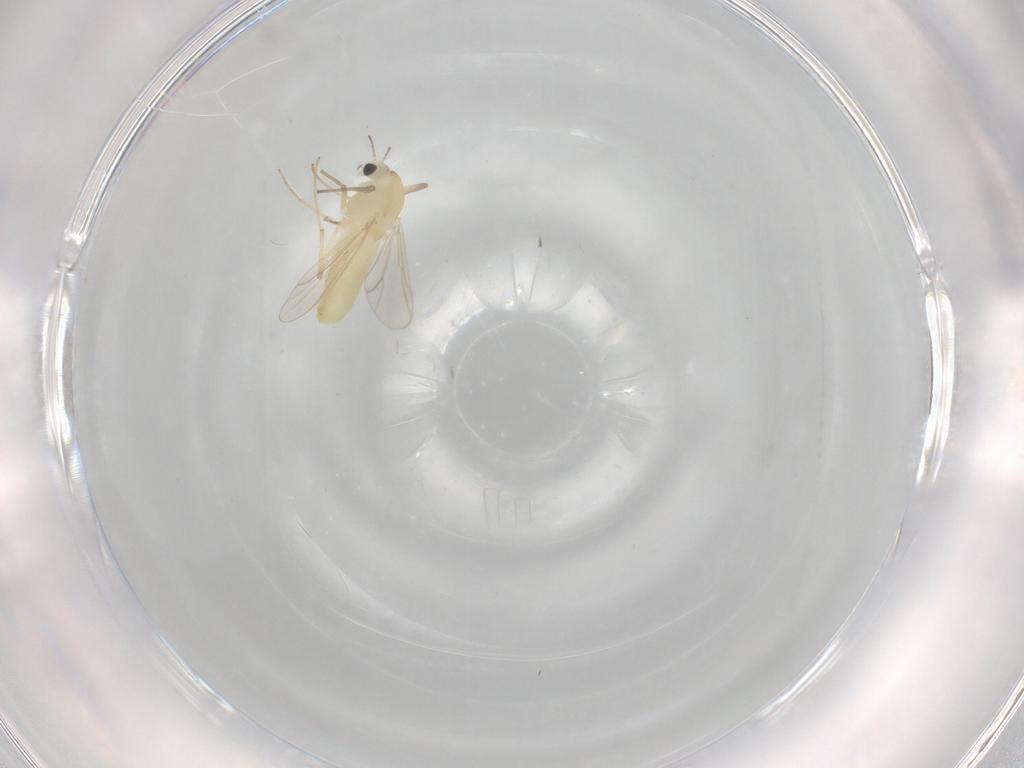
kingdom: Animalia
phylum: Arthropoda
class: Insecta
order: Diptera
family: Chironomidae
